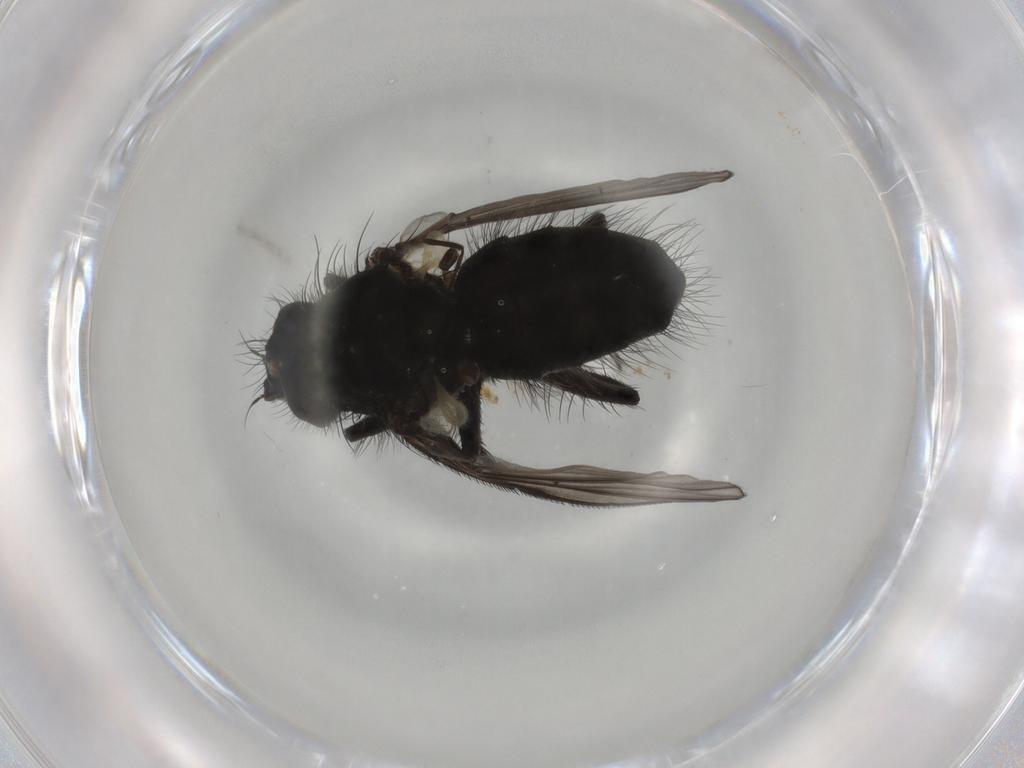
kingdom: Animalia
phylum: Arthropoda
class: Insecta
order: Diptera
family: Muscidae
